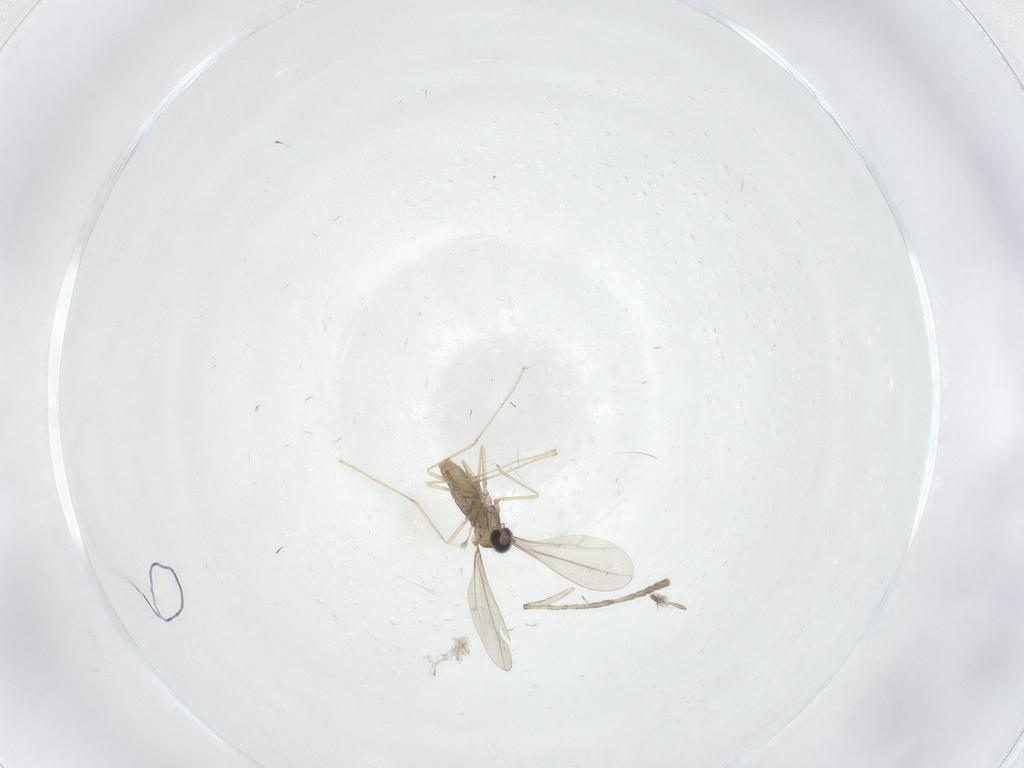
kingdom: Animalia
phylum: Arthropoda
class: Insecta
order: Diptera
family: Psychodidae
